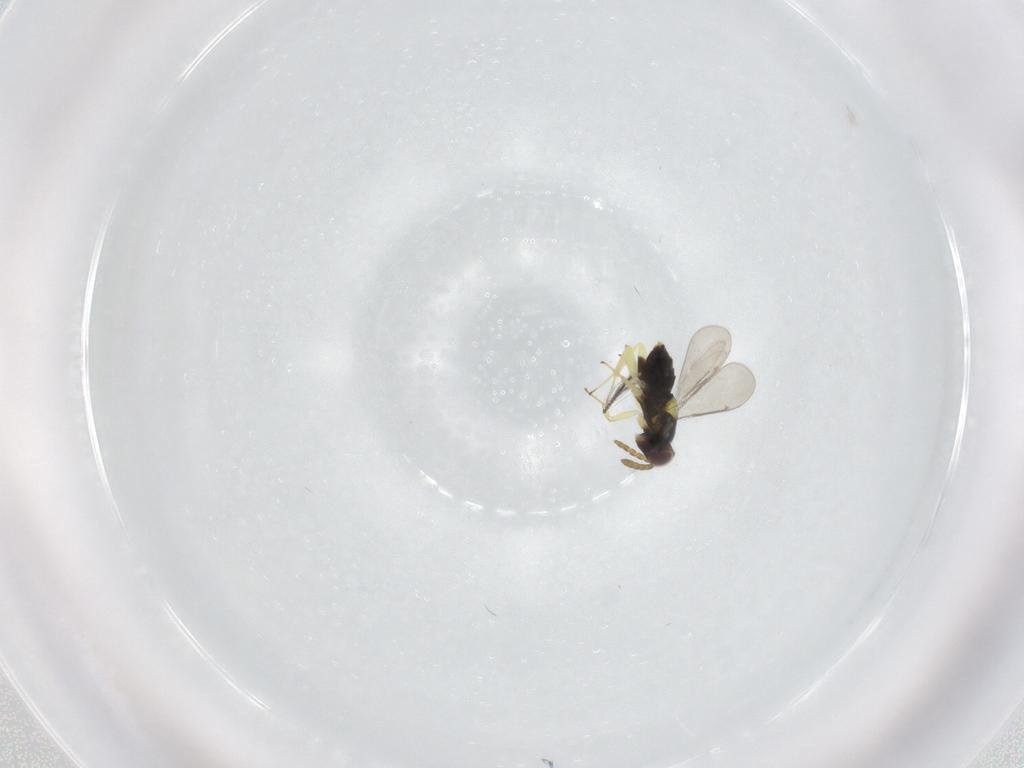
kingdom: Animalia
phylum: Arthropoda
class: Insecta
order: Hymenoptera
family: Aphelinidae
